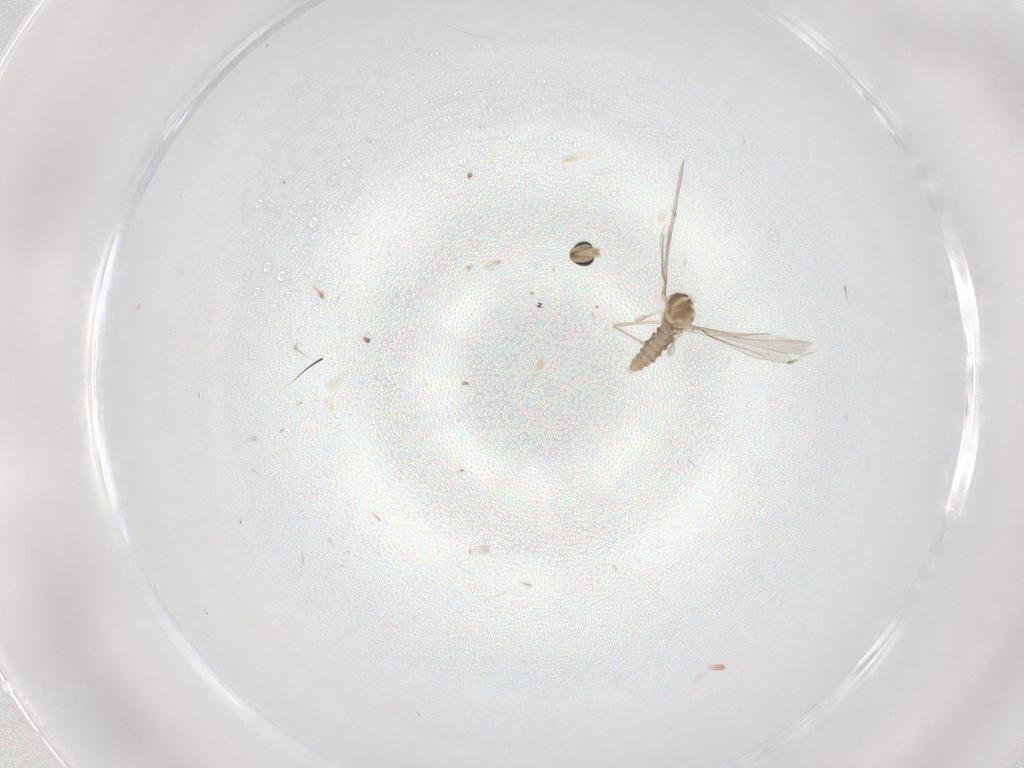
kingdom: Animalia
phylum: Arthropoda
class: Insecta
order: Diptera
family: Cecidomyiidae
